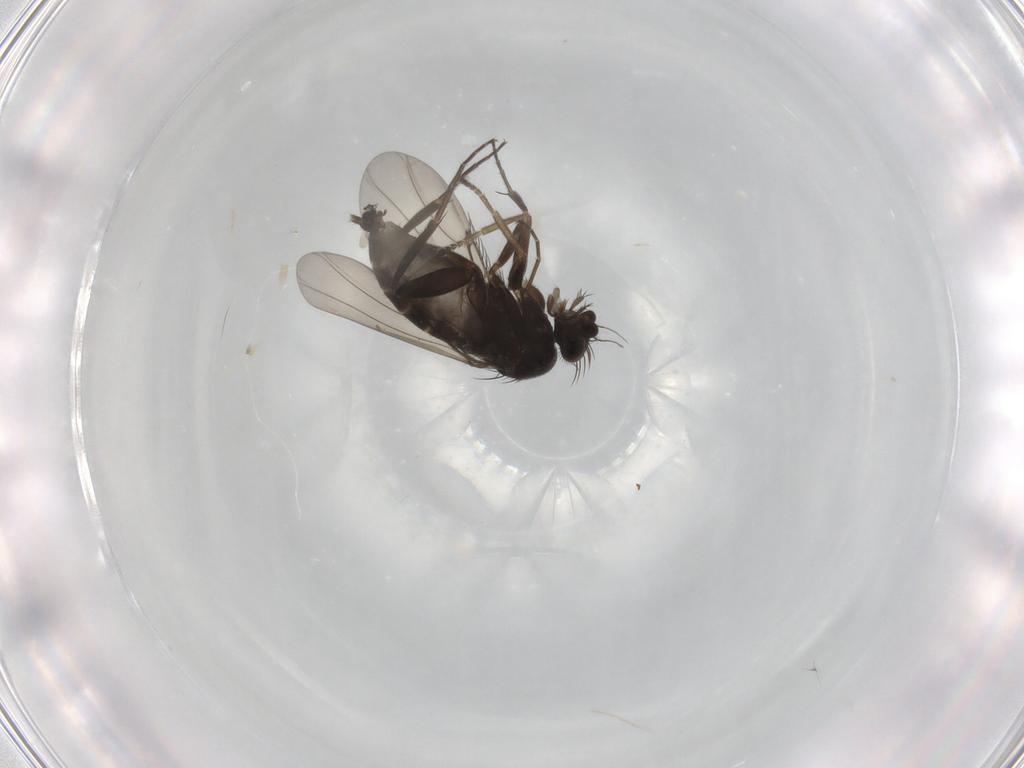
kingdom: Animalia
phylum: Arthropoda
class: Insecta
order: Diptera
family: Phoridae
